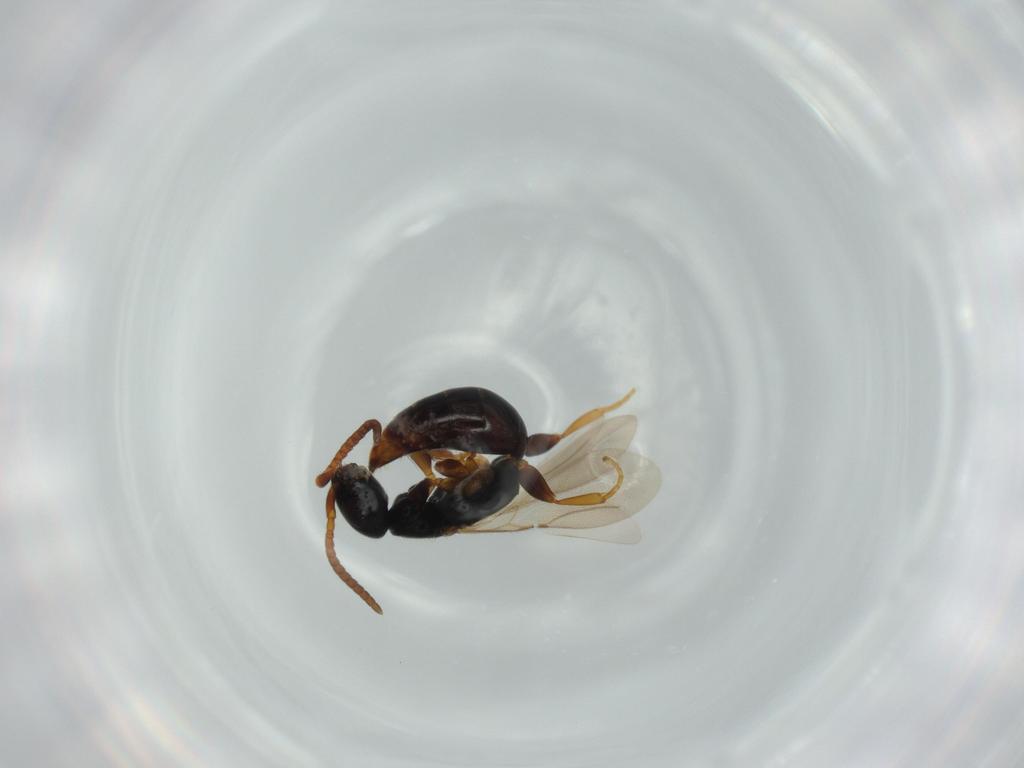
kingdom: Animalia
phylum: Arthropoda
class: Insecta
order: Hymenoptera
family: Bethylidae
